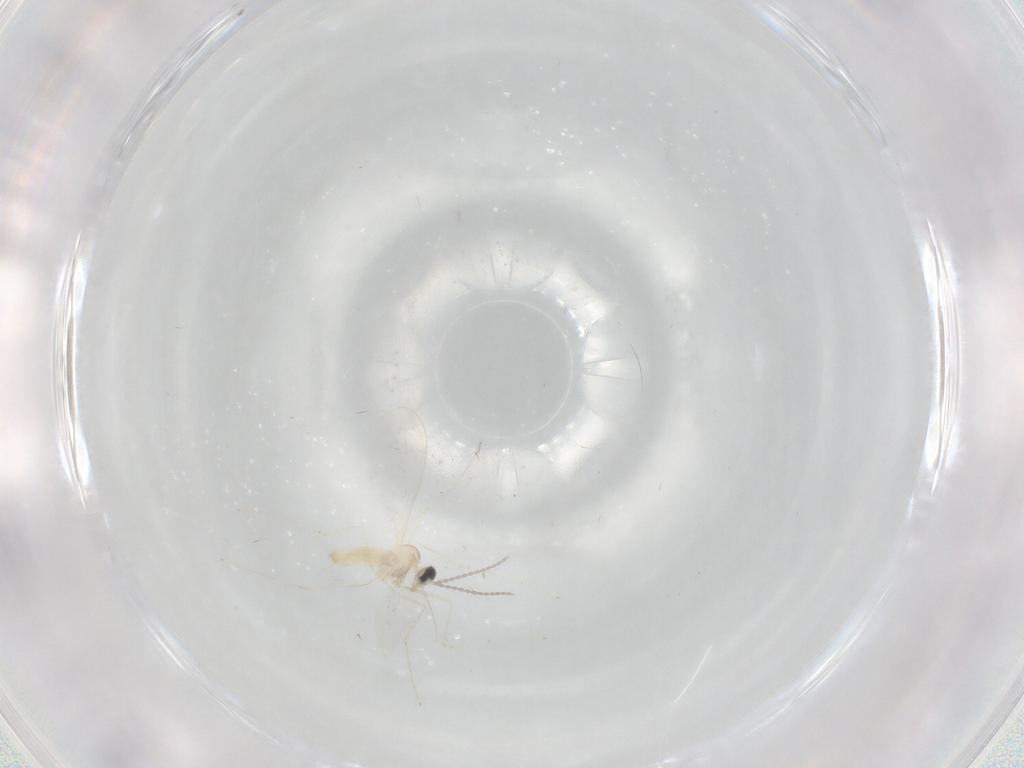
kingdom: Animalia
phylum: Arthropoda
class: Insecta
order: Diptera
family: Cecidomyiidae
